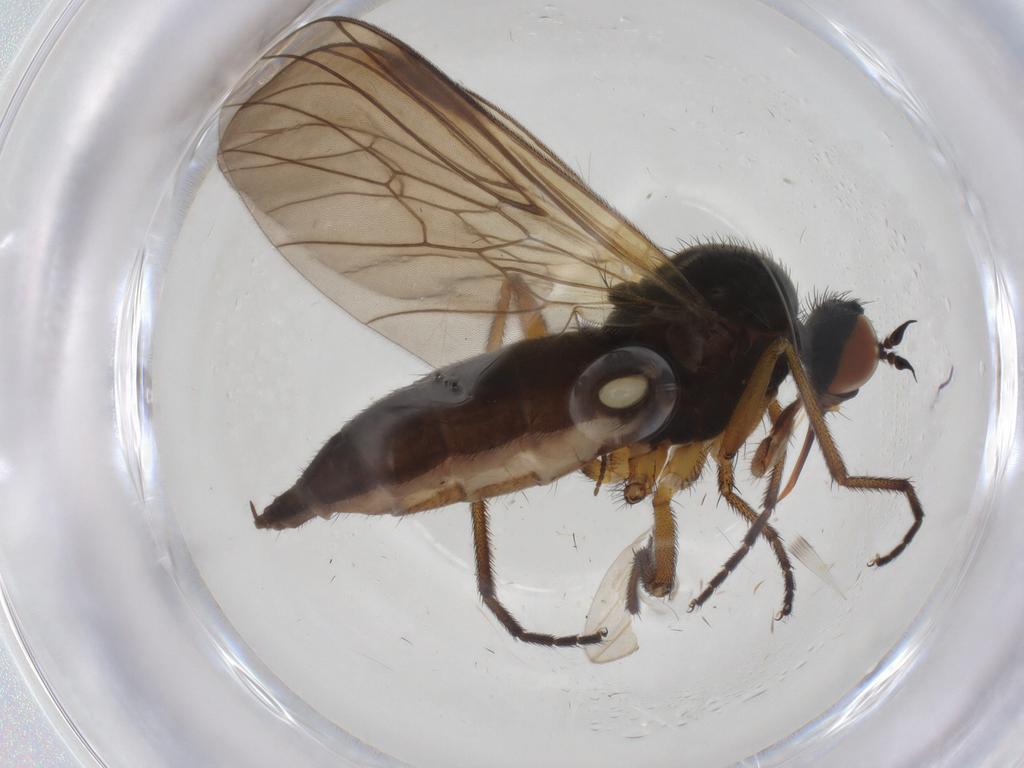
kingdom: Animalia
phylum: Arthropoda
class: Insecta
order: Diptera
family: Empididae
